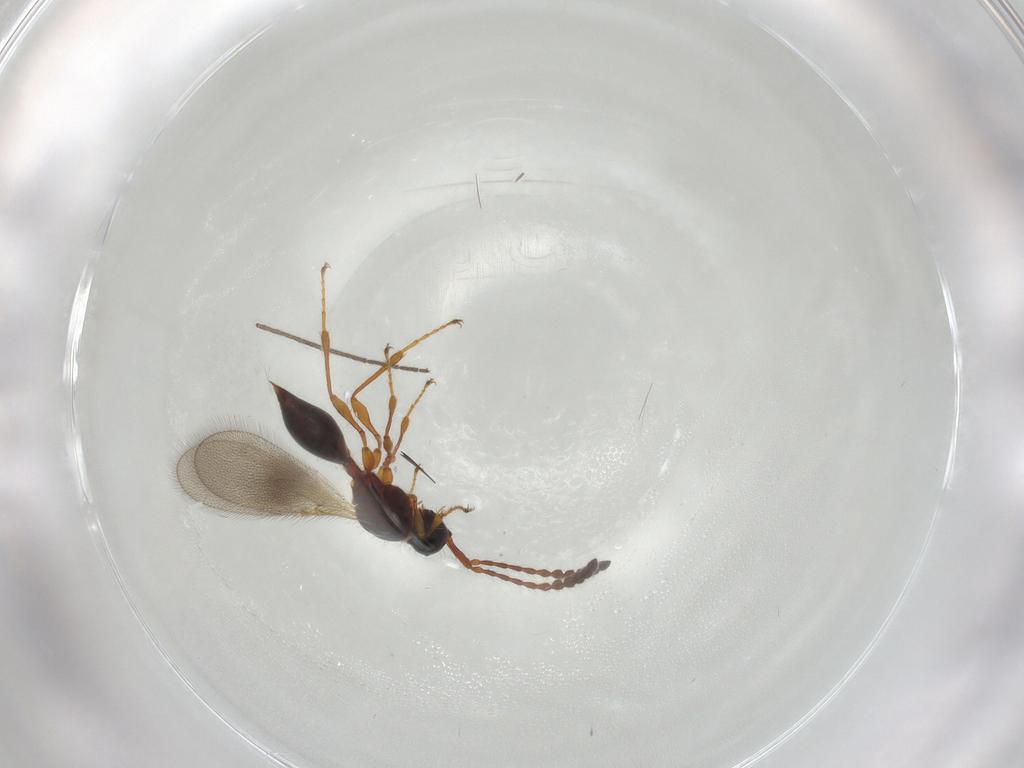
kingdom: Animalia
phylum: Arthropoda
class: Insecta
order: Hymenoptera
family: Diapriidae
